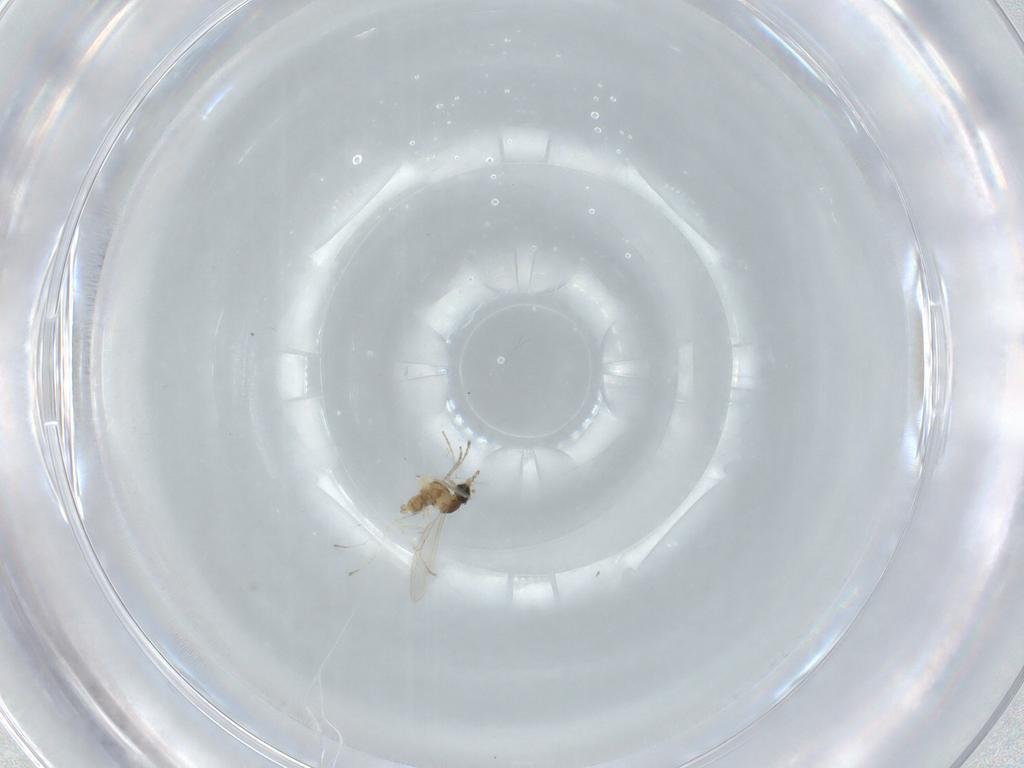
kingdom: Animalia
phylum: Arthropoda
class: Insecta
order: Diptera
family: Cecidomyiidae
